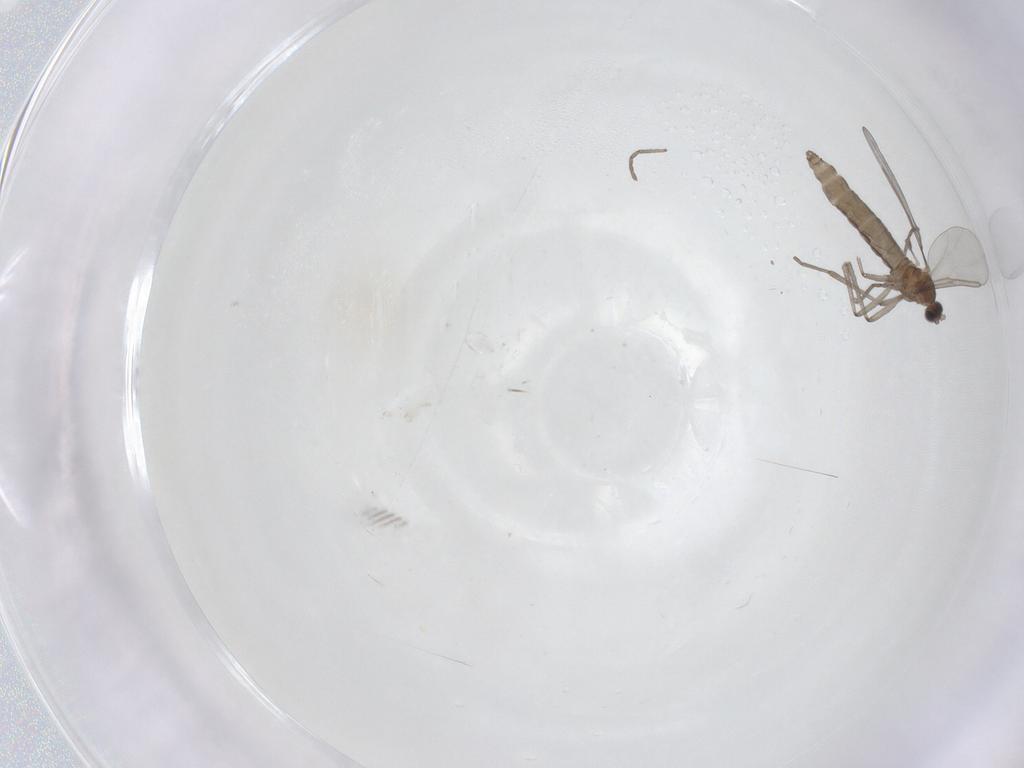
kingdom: Animalia
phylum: Arthropoda
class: Insecta
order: Diptera
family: Cecidomyiidae
